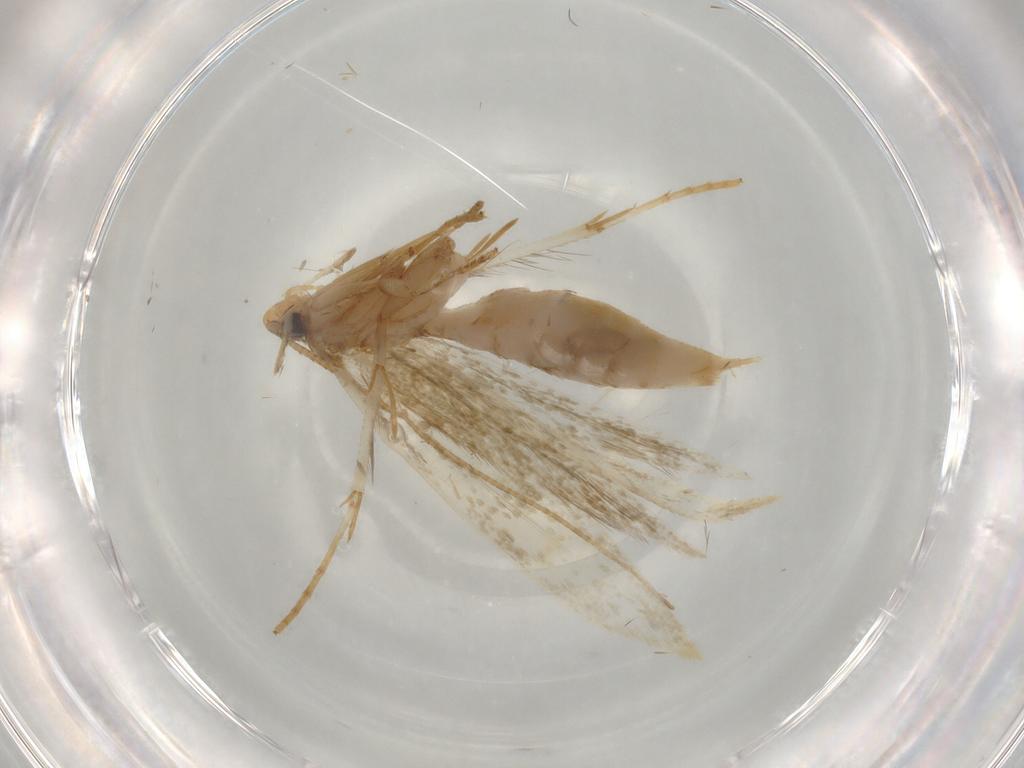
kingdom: Animalia
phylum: Arthropoda
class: Insecta
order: Lepidoptera
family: Tineidae
